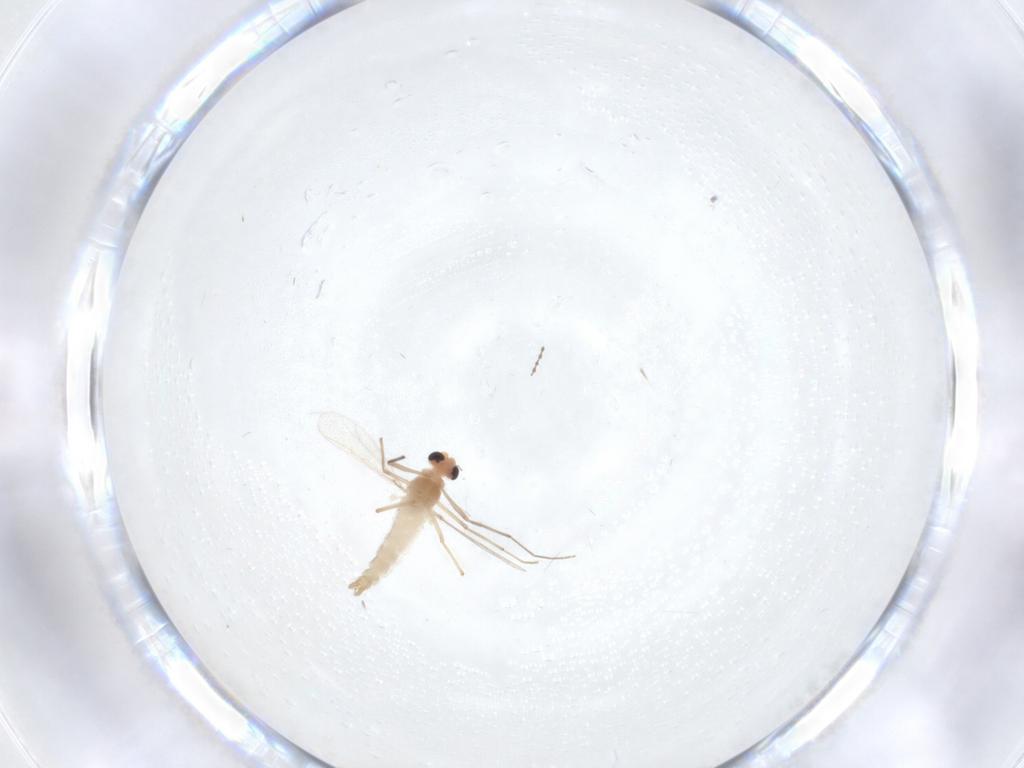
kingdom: Animalia
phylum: Arthropoda
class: Insecta
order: Diptera
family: Chironomidae
